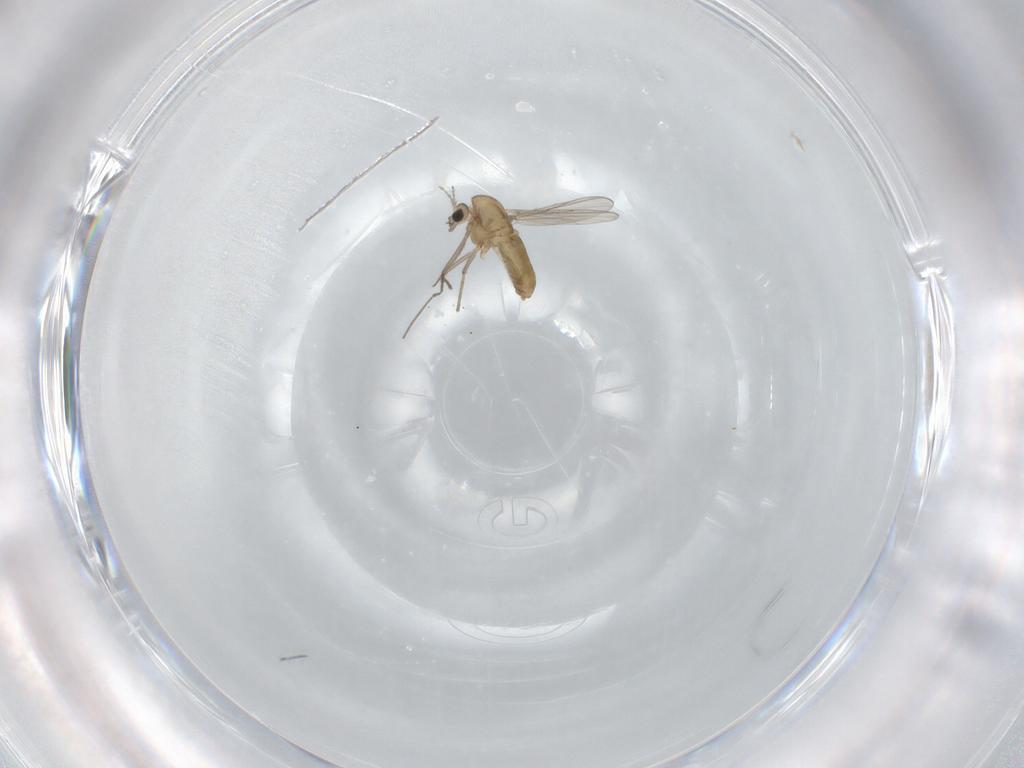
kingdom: Animalia
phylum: Arthropoda
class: Insecta
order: Diptera
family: Chironomidae
